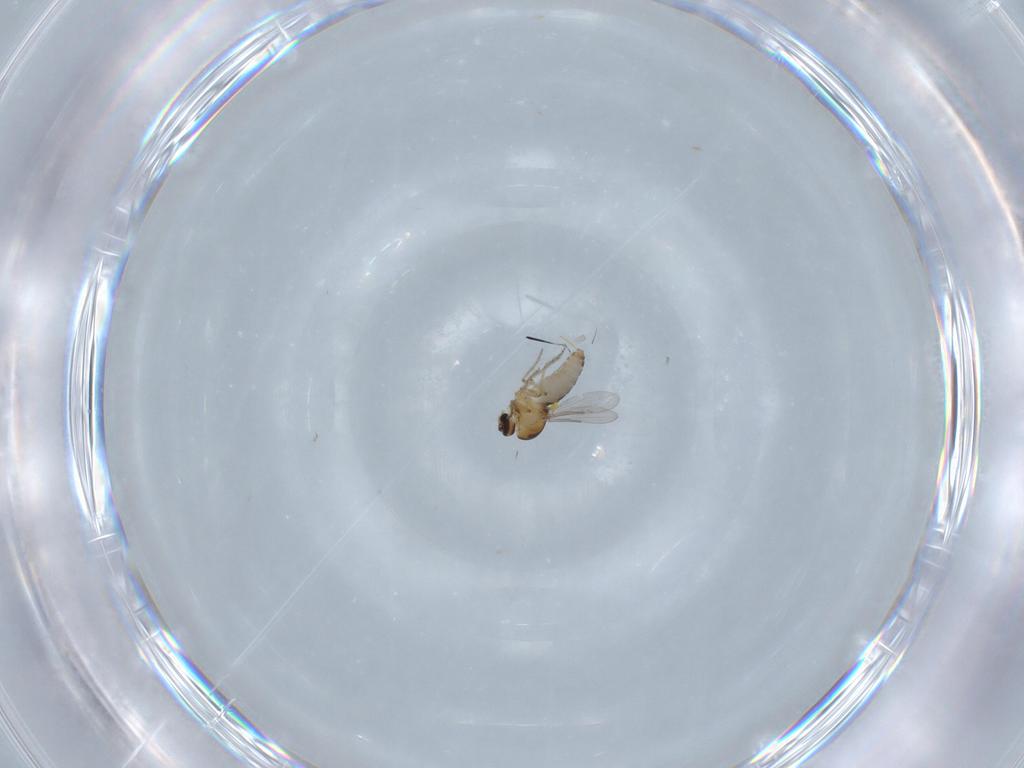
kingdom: Animalia
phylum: Arthropoda
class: Insecta
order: Diptera
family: Ceratopogonidae
